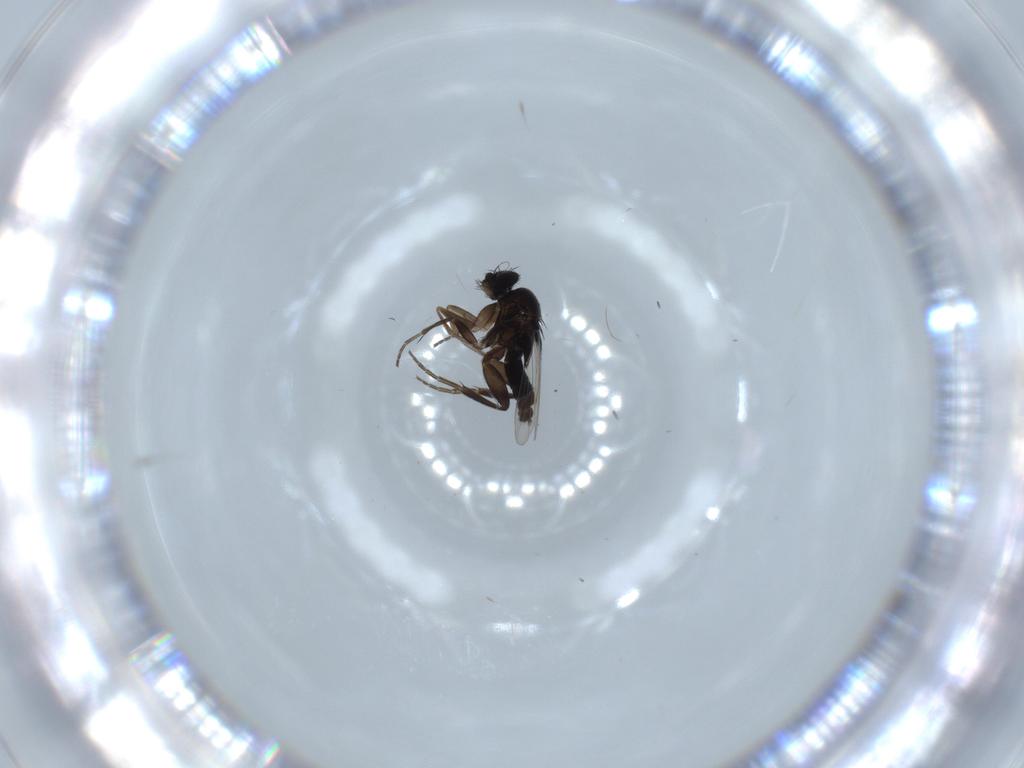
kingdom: Animalia
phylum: Arthropoda
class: Insecta
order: Diptera
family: Phoridae
